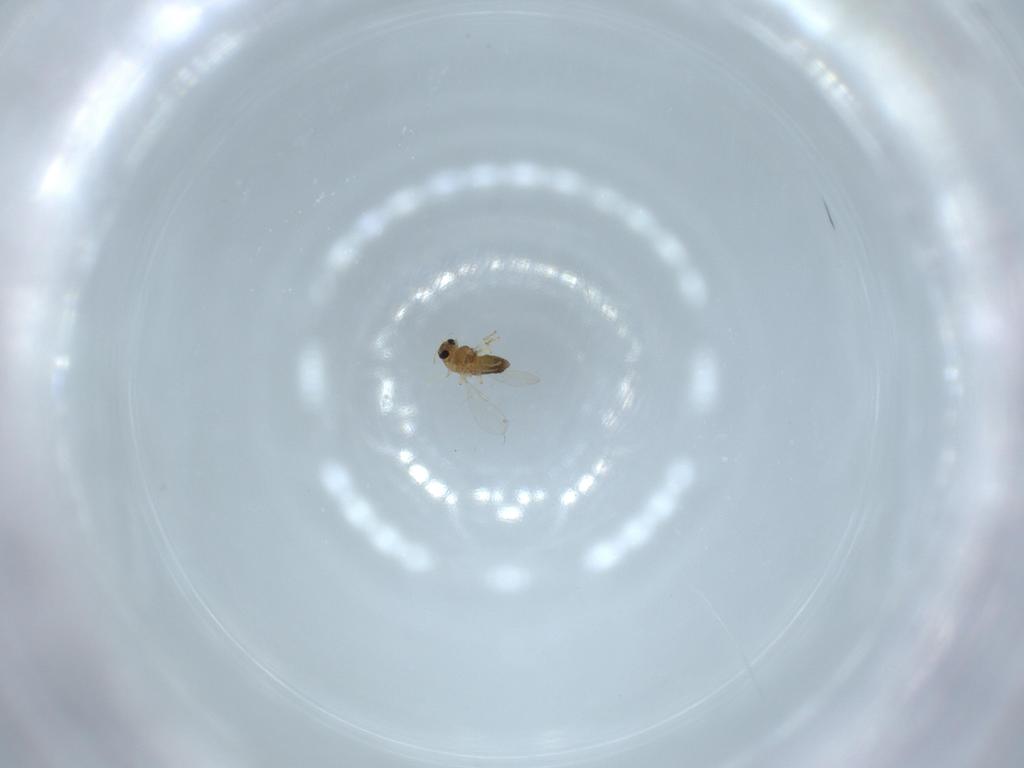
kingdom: Animalia
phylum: Arthropoda
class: Insecta
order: Diptera
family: Chironomidae
